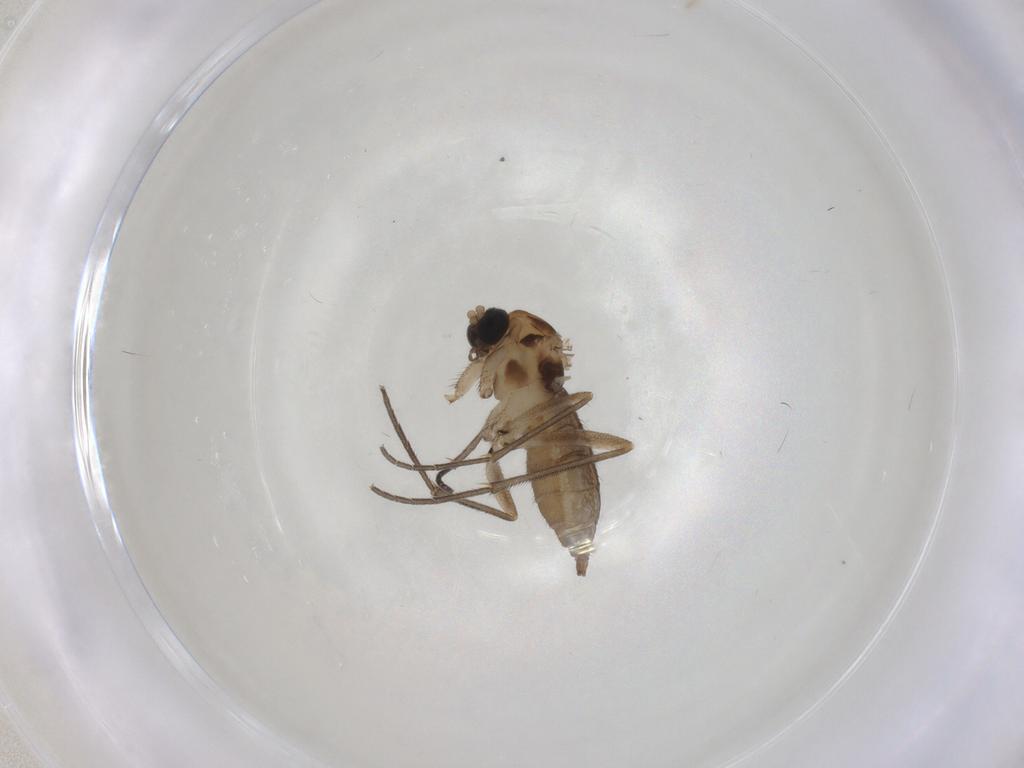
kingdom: Animalia
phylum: Arthropoda
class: Insecta
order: Diptera
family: Sciaridae
